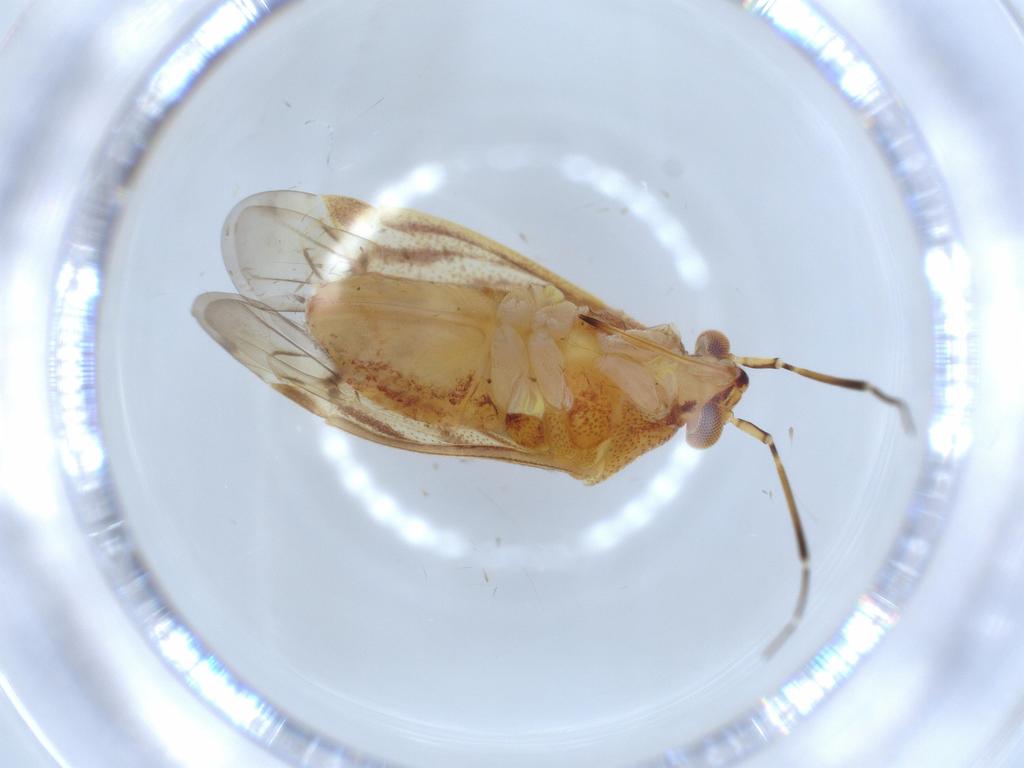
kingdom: Animalia
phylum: Arthropoda
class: Insecta
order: Hemiptera
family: Miridae
